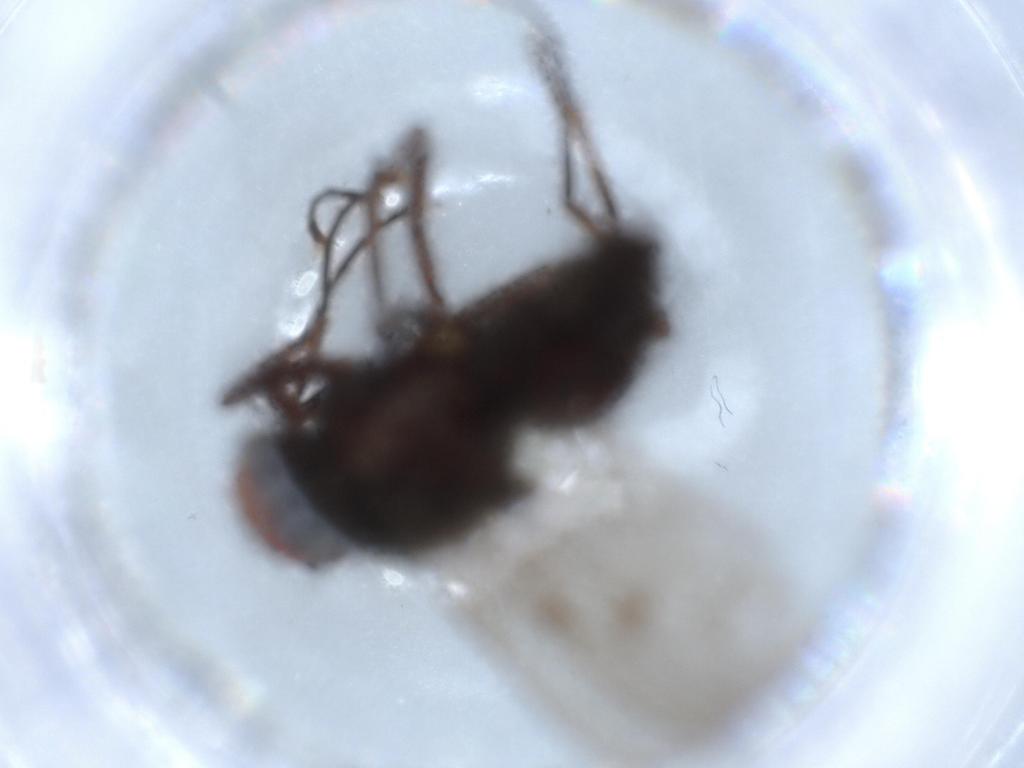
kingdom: Animalia
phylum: Arthropoda
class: Insecta
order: Diptera
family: Muscidae
